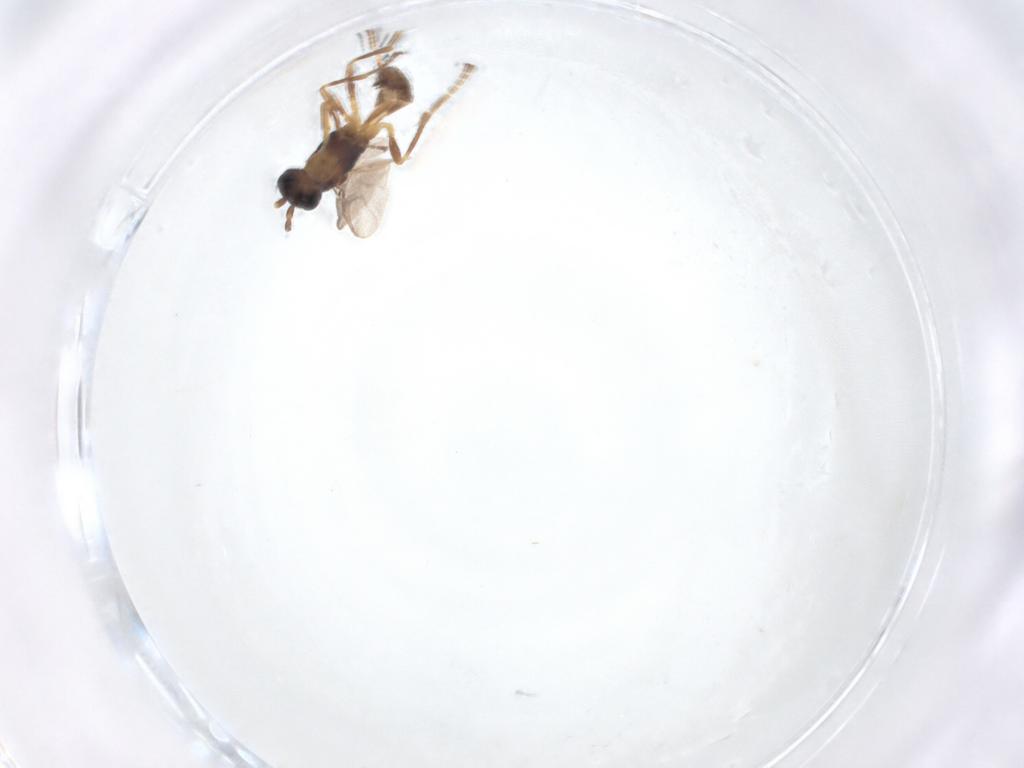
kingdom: Animalia
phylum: Arthropoda
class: Insecta
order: Hymenoptera
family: Braconidae
